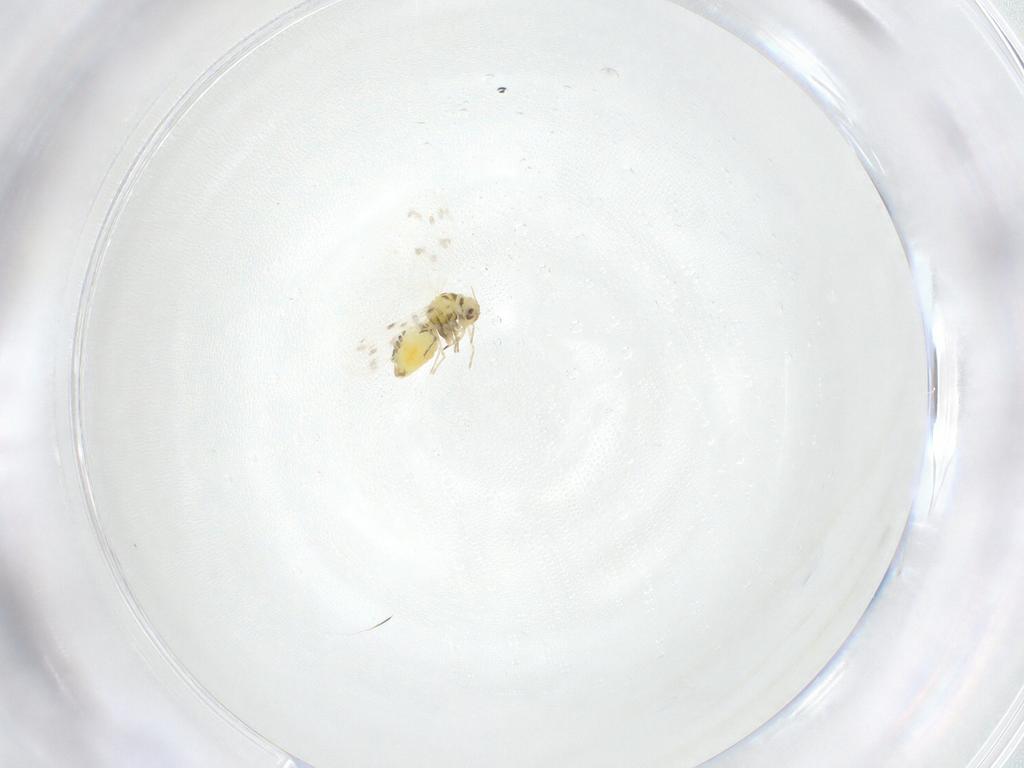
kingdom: Animalia
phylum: Arthropoda
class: Insecta
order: Hemiptera
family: Aleyrodidae
